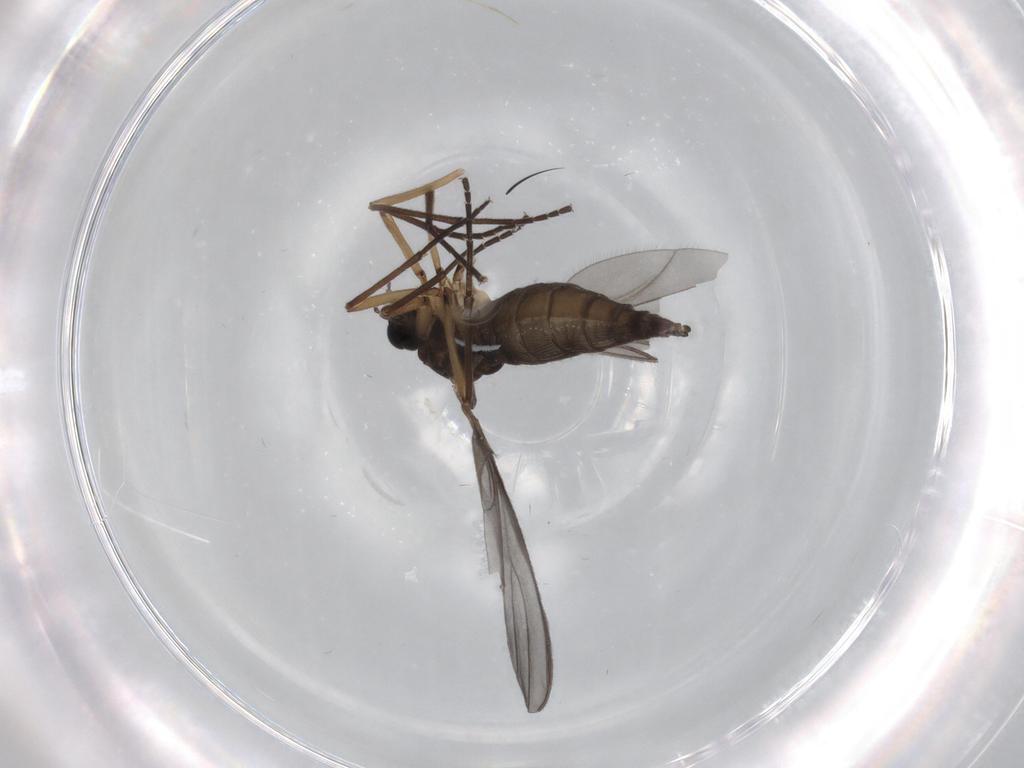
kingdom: Animalia
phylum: Arthropoda
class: Insecta
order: Diptera
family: Sciaridae
